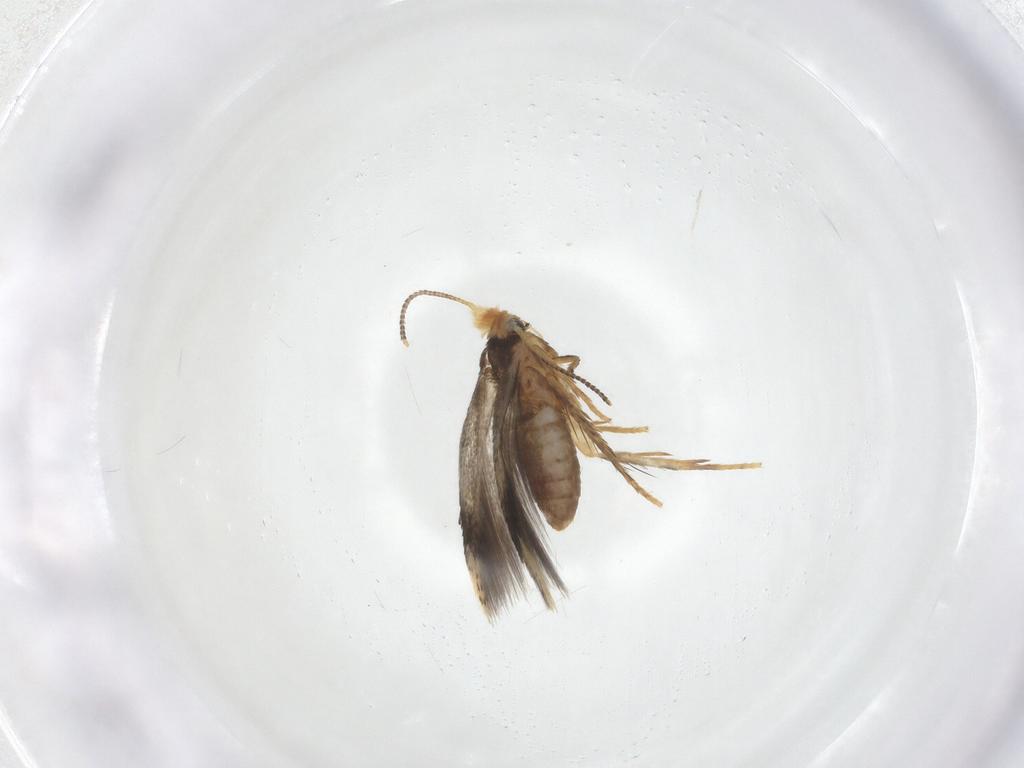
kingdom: Animalia
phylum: Arthropoda
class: Insecta
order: Lepidoptera
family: Nepticulidae
